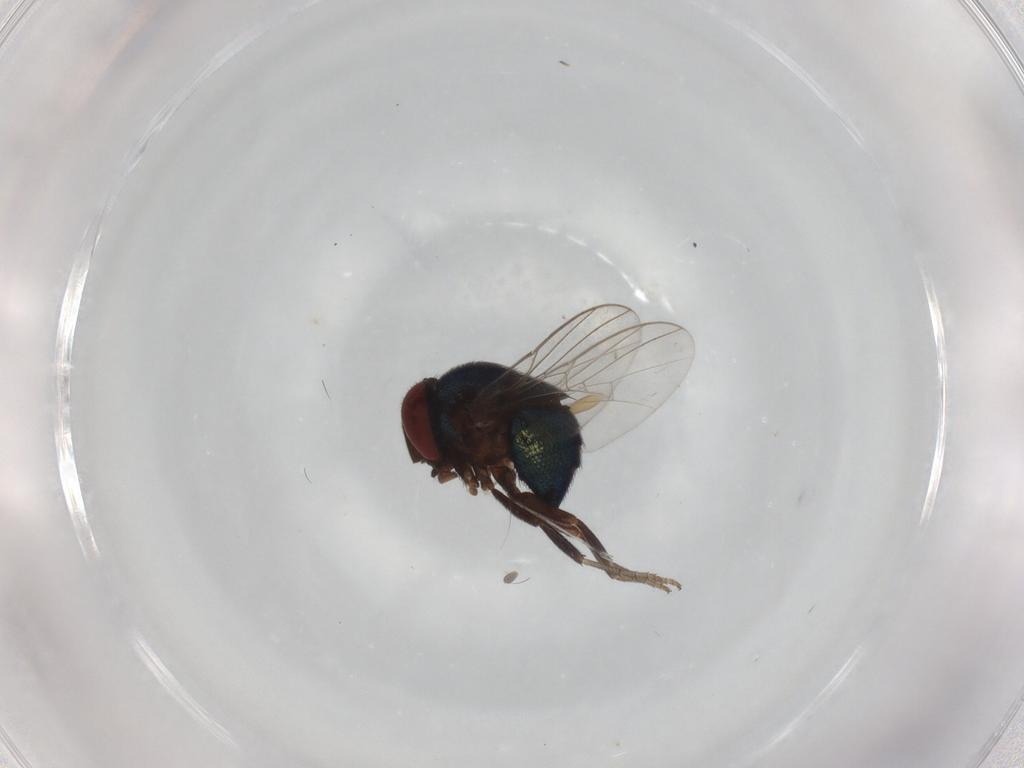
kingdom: Animalia
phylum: Arthropoda
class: Insecta
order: Diptera
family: Cryptochetidae
